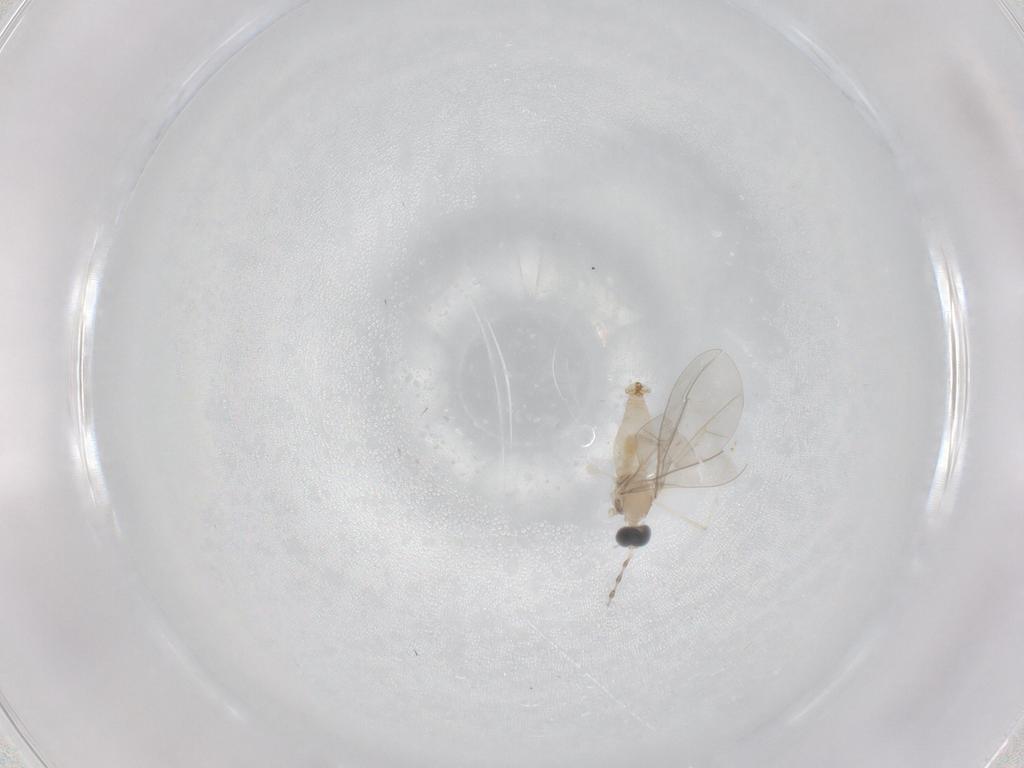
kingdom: Animalia
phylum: Arthropoda
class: Insecta
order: Diptera
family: Cecidomyiidae
